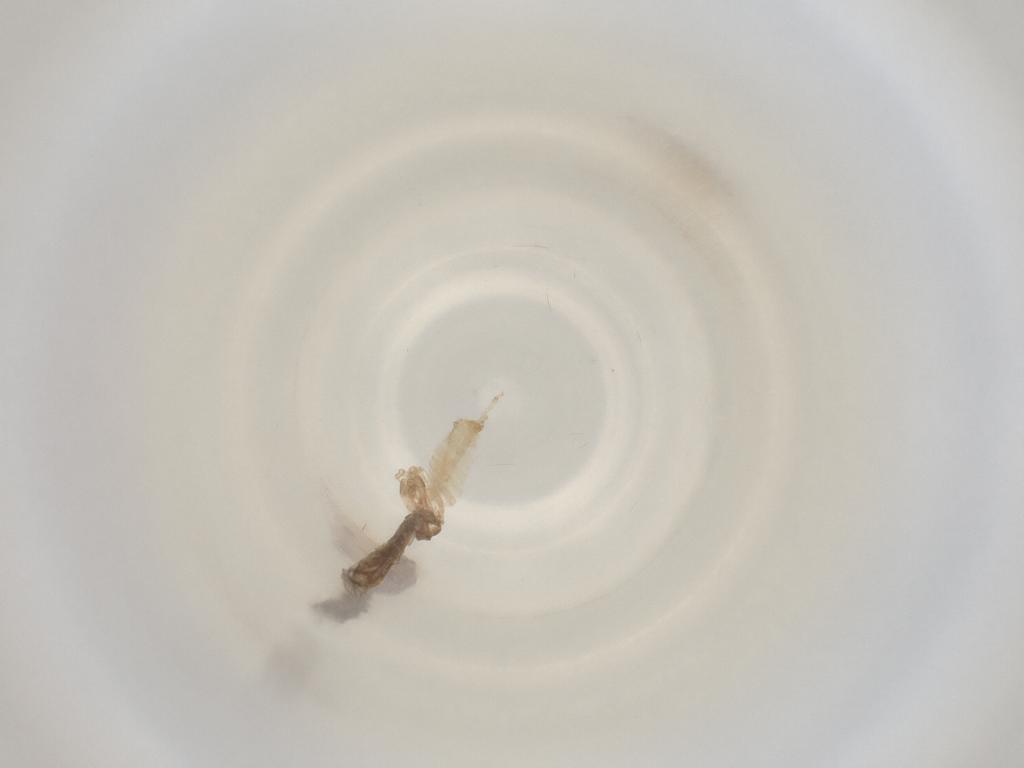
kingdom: Animalia
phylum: Arthropoda
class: Insecta
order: Diptera
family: Cecidomyiidae
